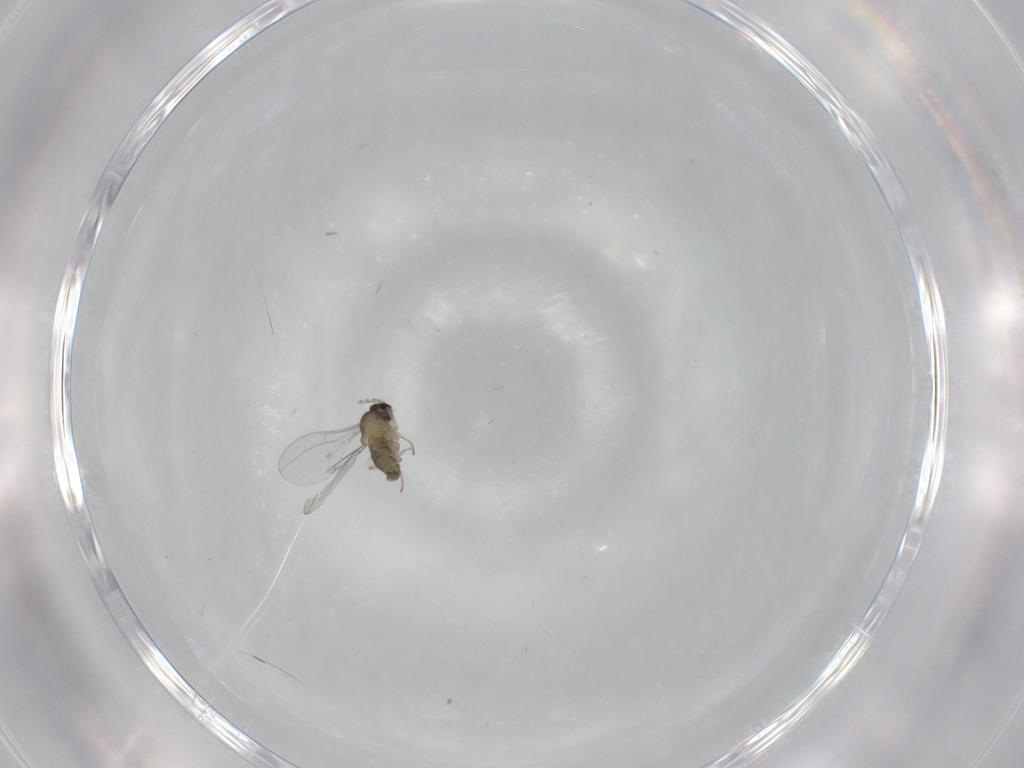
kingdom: Animalia
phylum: Arthropoda
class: Insecta
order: Diptera
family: Cecidomyiidae
